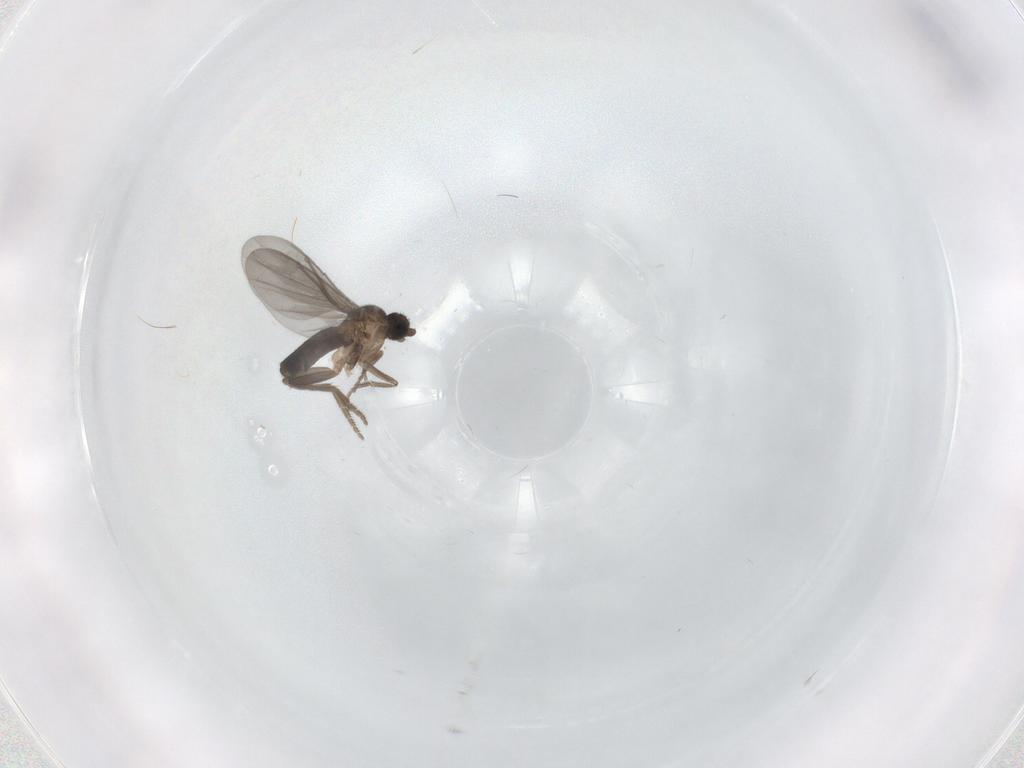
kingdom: Animalia
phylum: Arthropoda
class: Insecta
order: Diptera
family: Phoridae
